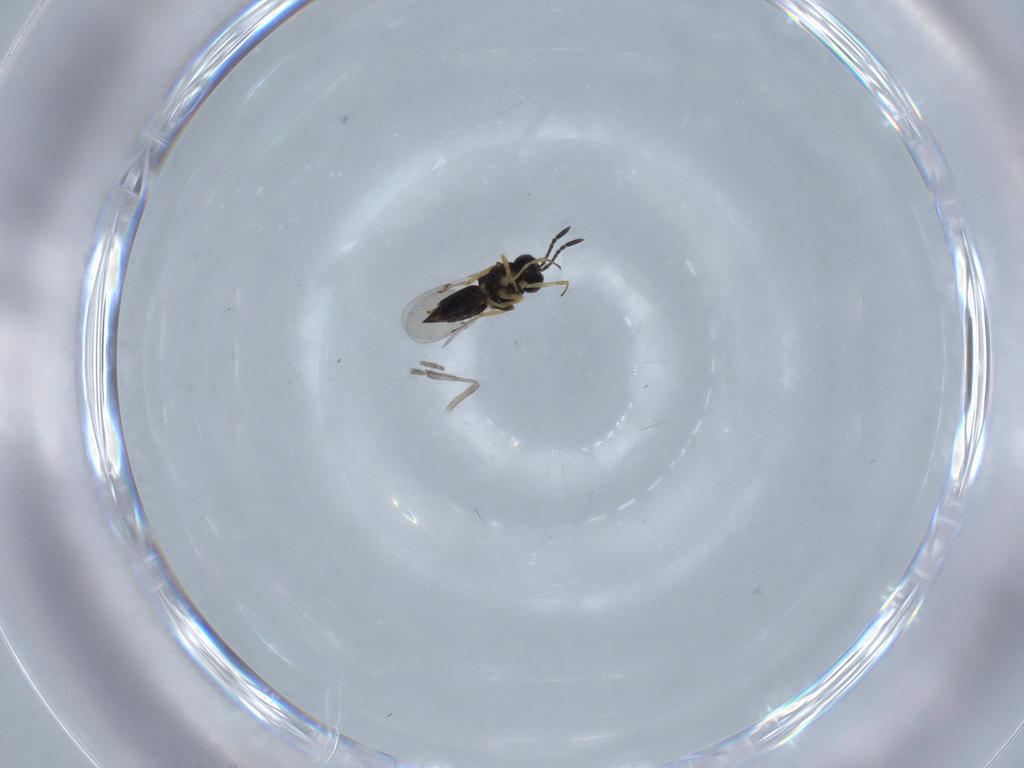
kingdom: Animalia
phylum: Arthropoda
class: Insecta
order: Hymenoptera
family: Encyrtidae
